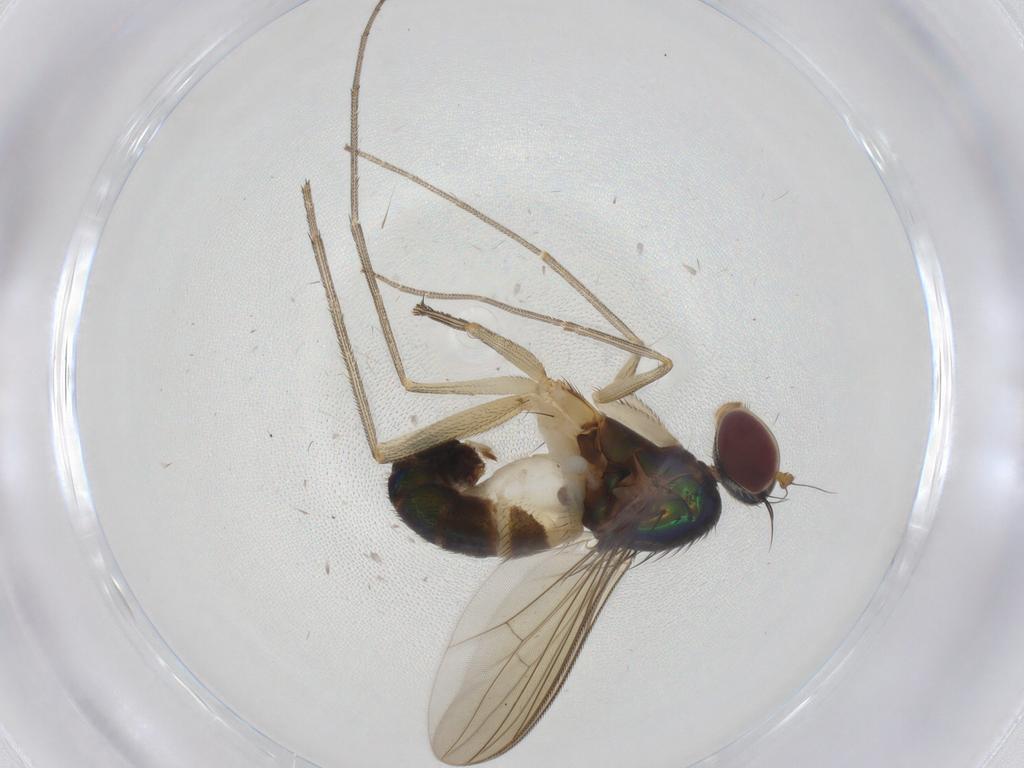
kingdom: Animalia
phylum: Arthropoda
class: Insecta
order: Diptera
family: Dolichopodidae
